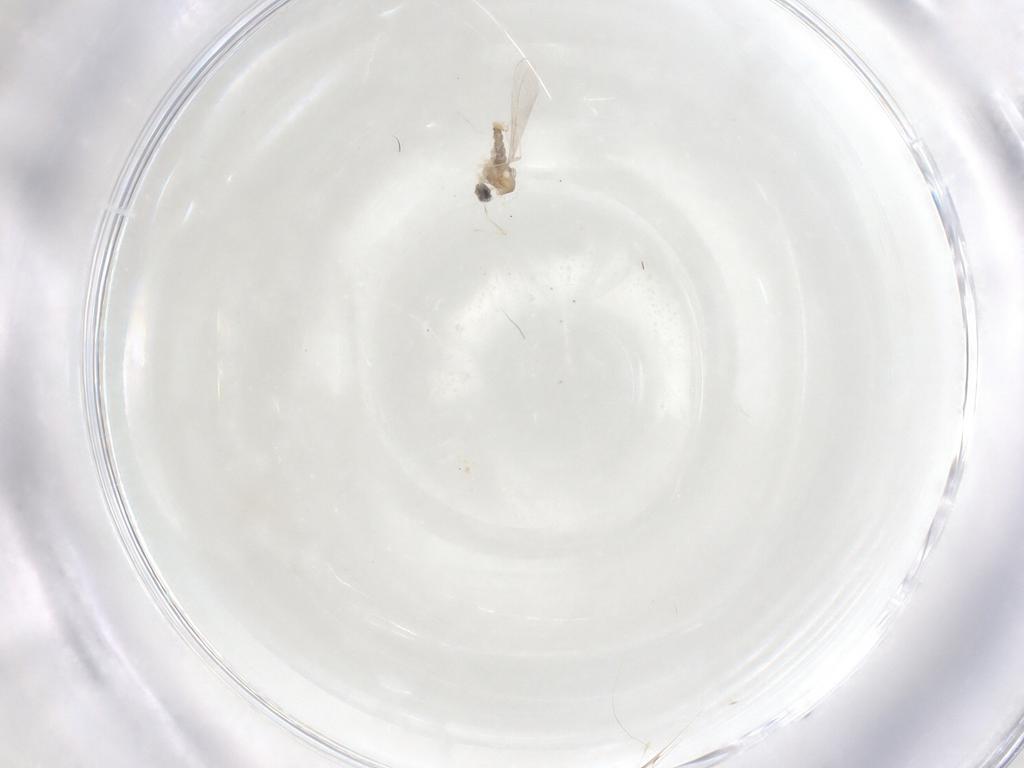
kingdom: Animalia
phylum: Arthropoda
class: Insecta
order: Diptera
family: Cecidomyiidae
